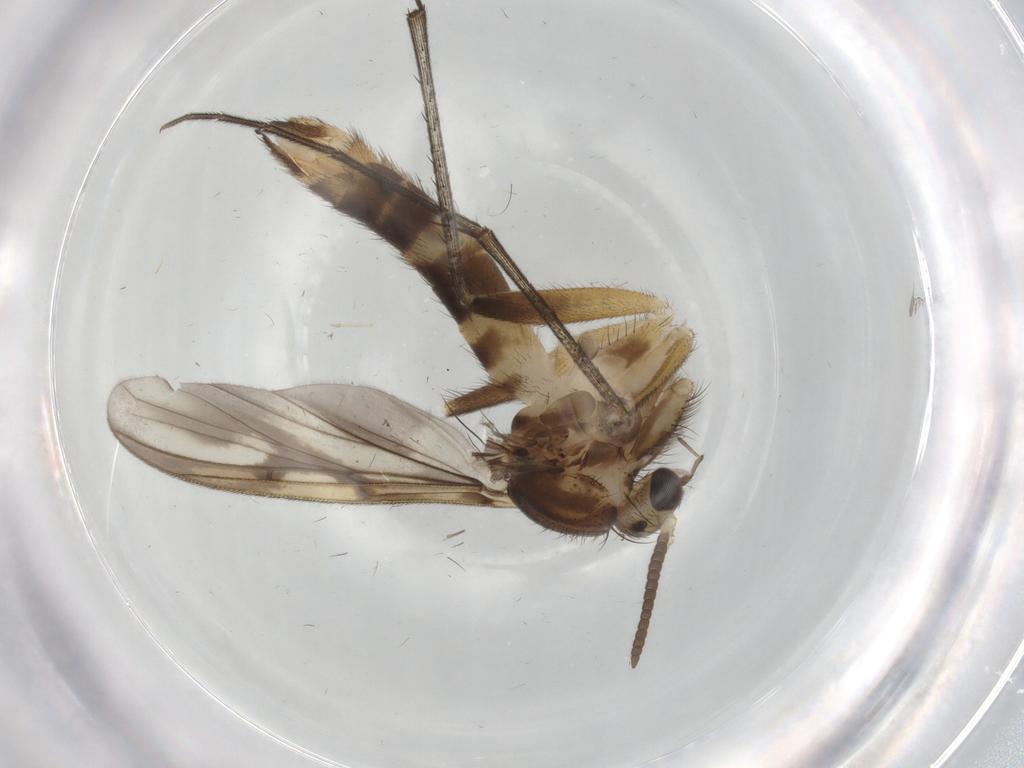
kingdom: Animalia
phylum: Arthropoda
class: Insecta
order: Diptera
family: Mycetophilidae
